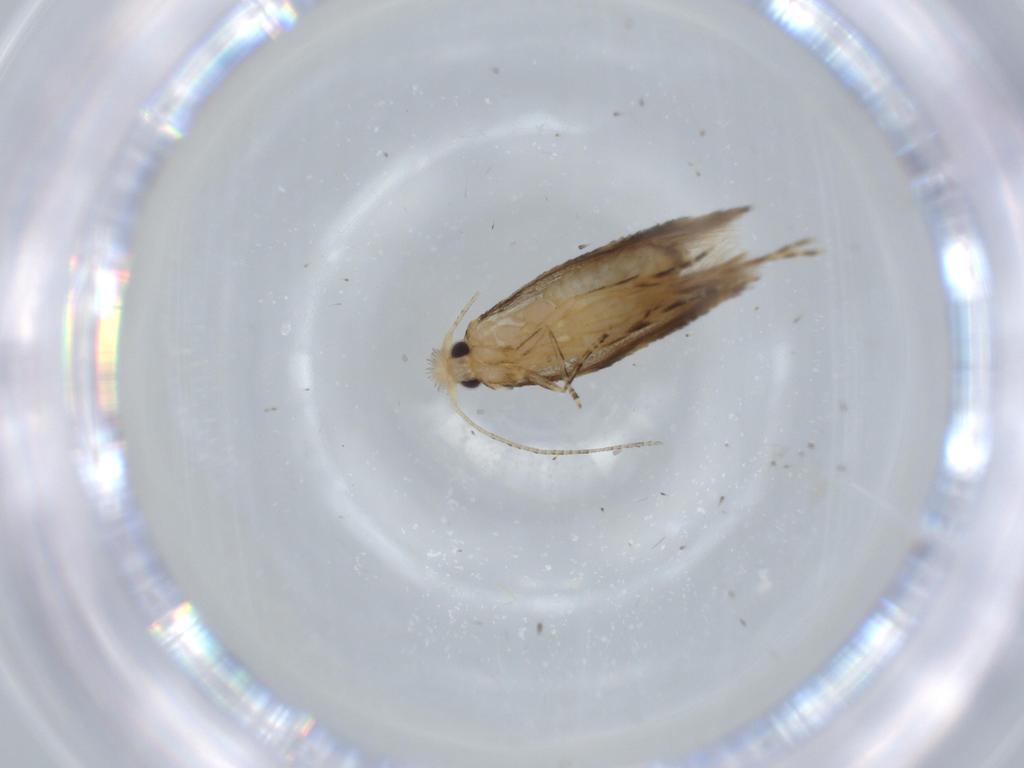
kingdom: Animalia
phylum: Arthropoda
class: Insecta
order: Lepidoptera
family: Bucculatricidae
